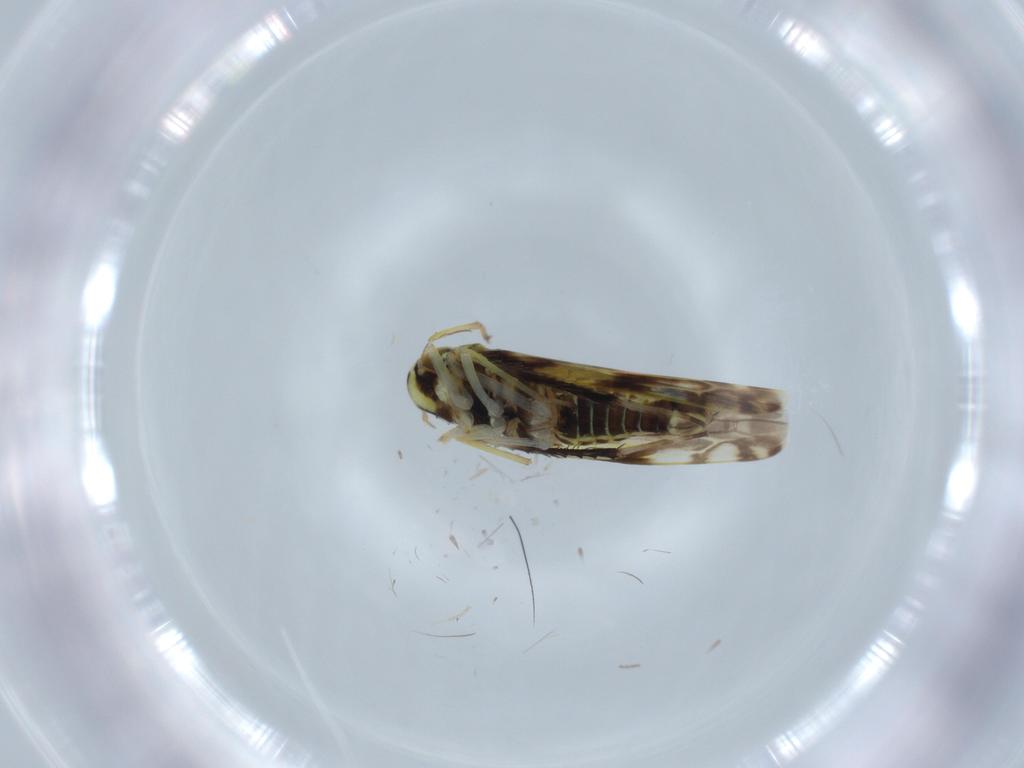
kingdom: Animalia
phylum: Arthropoda
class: Insecta
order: Hemiptera
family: Cicadellidae
